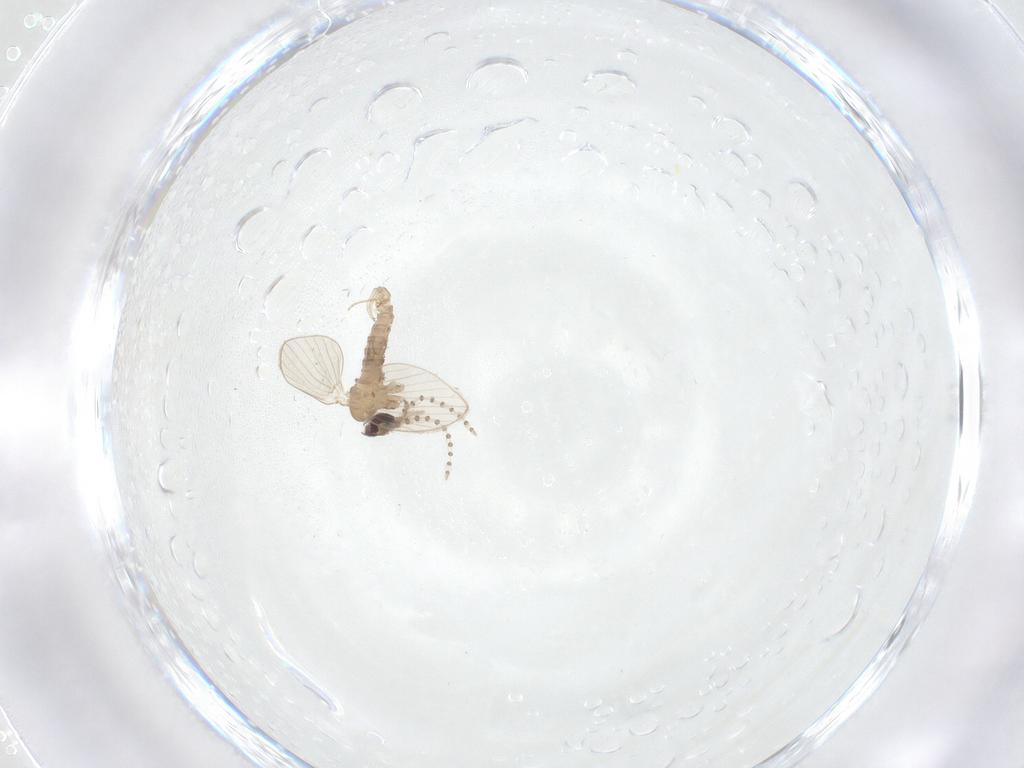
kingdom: Animalia
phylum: Arthropoda
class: Insecta
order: Diptera
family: Psychodidae
